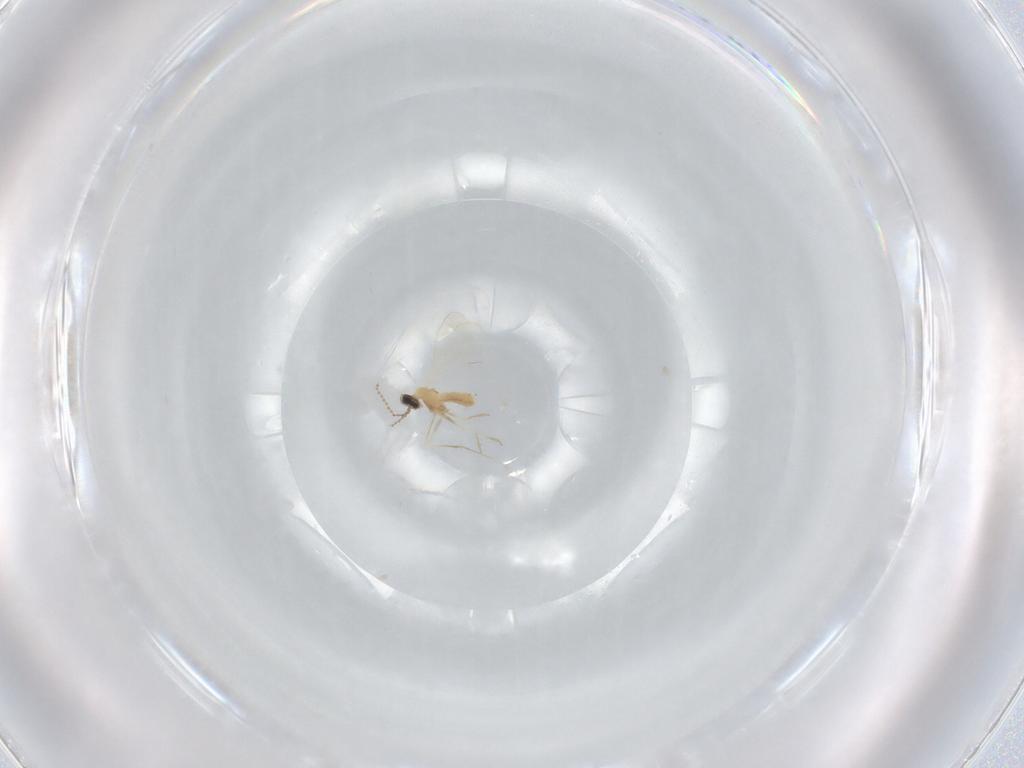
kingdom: Animalia
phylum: Arthropoda
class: Insecta
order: Diptera
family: Cecidomyiidae
